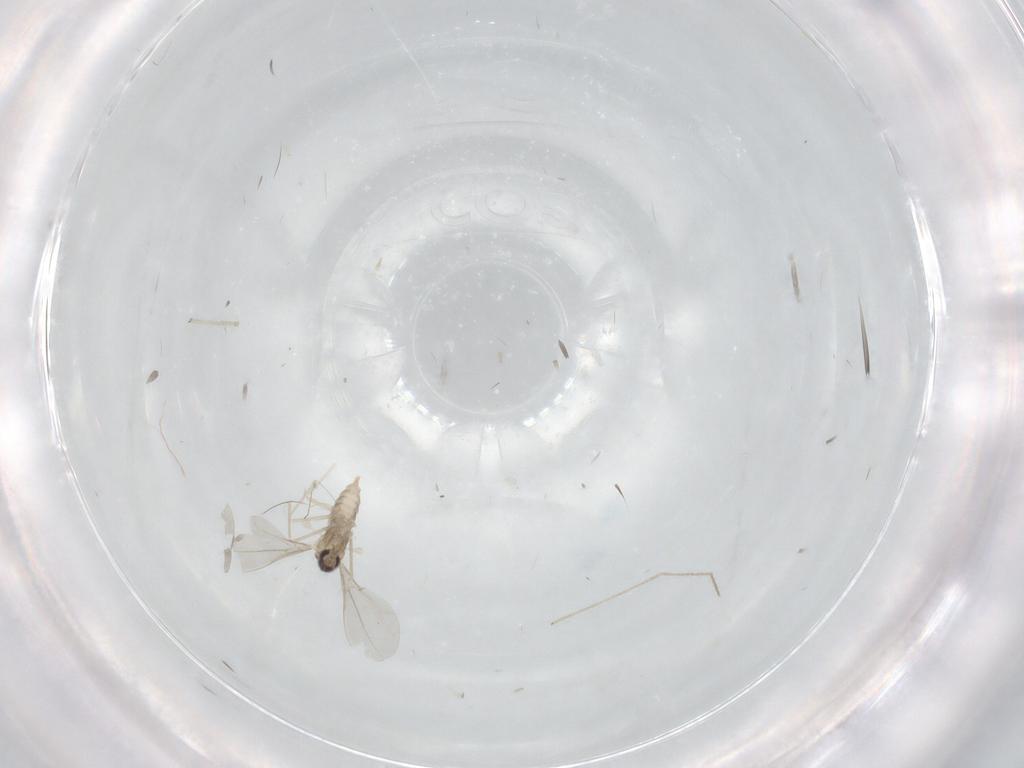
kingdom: Animalia
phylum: Arthropoda
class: Insecta
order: Diptera
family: Cecidomyiidae
